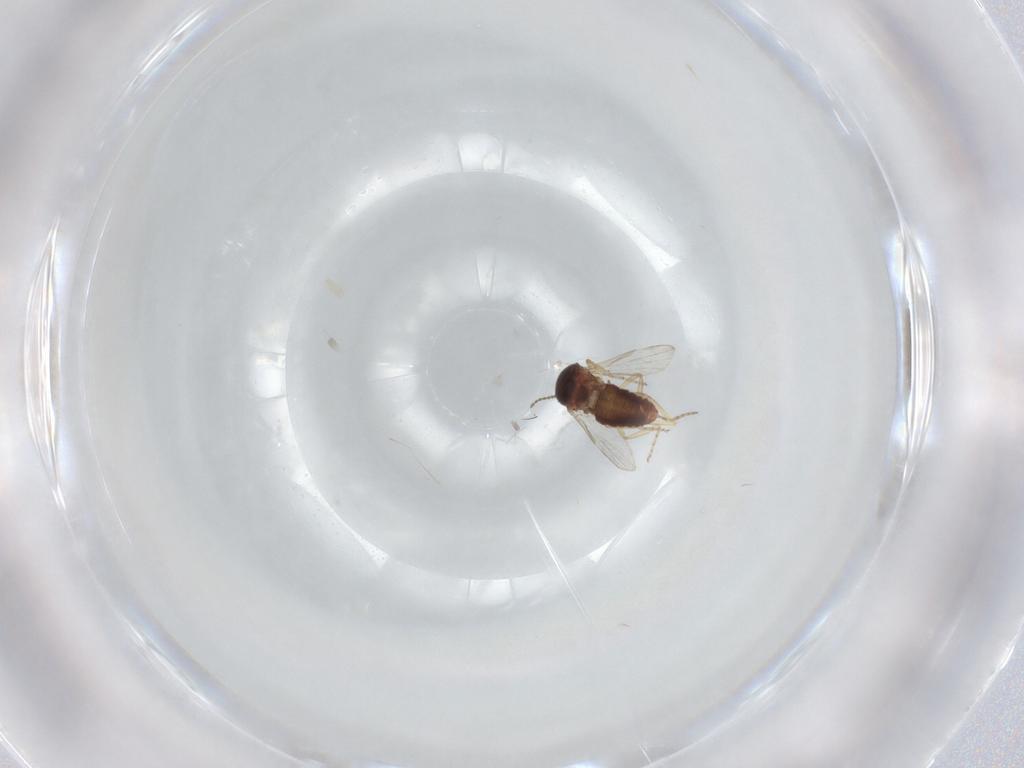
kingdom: Animalia
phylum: Arthropoda
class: Insecta
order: Diptera
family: Ceratopogonidae
